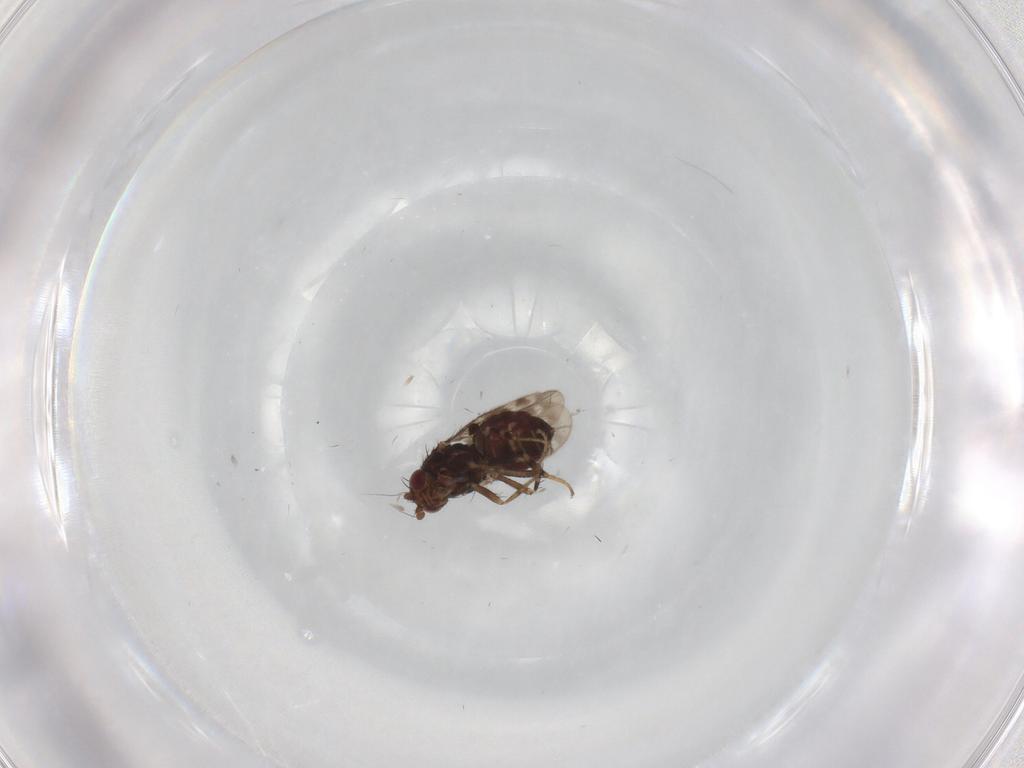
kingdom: Animalia
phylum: Arthropoda
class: Insecta
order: Diptera
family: Sphaeroceridae
